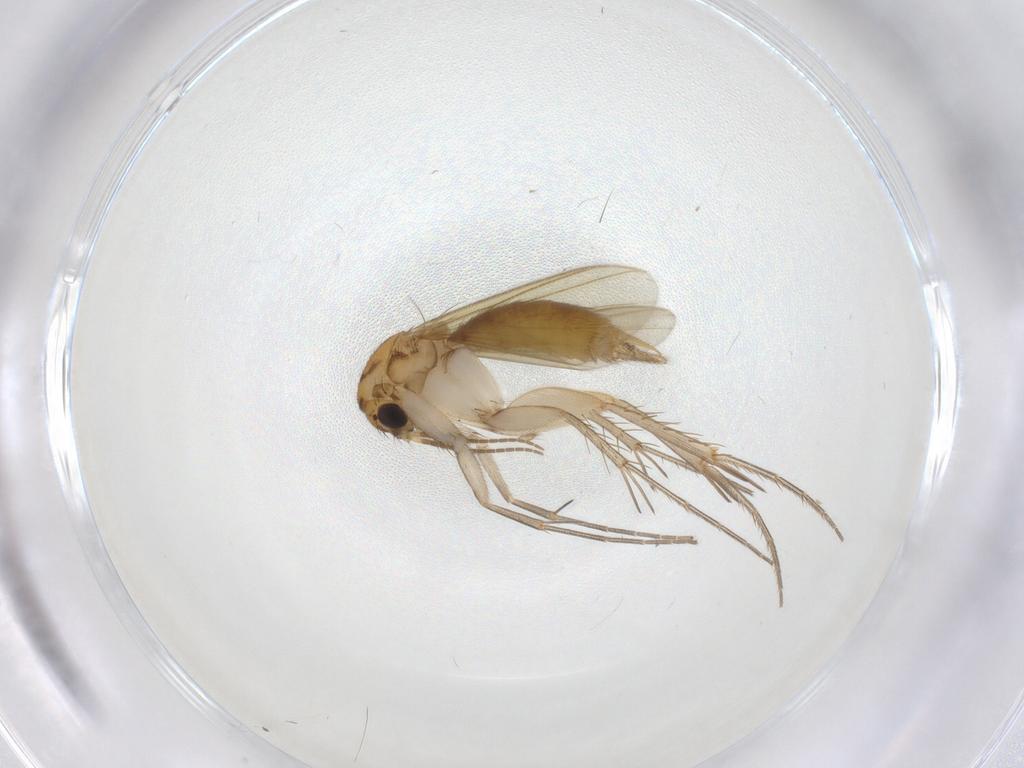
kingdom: Animalia
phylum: Arthropoda
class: Insecta
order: Diptera
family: Mycetophilidae
